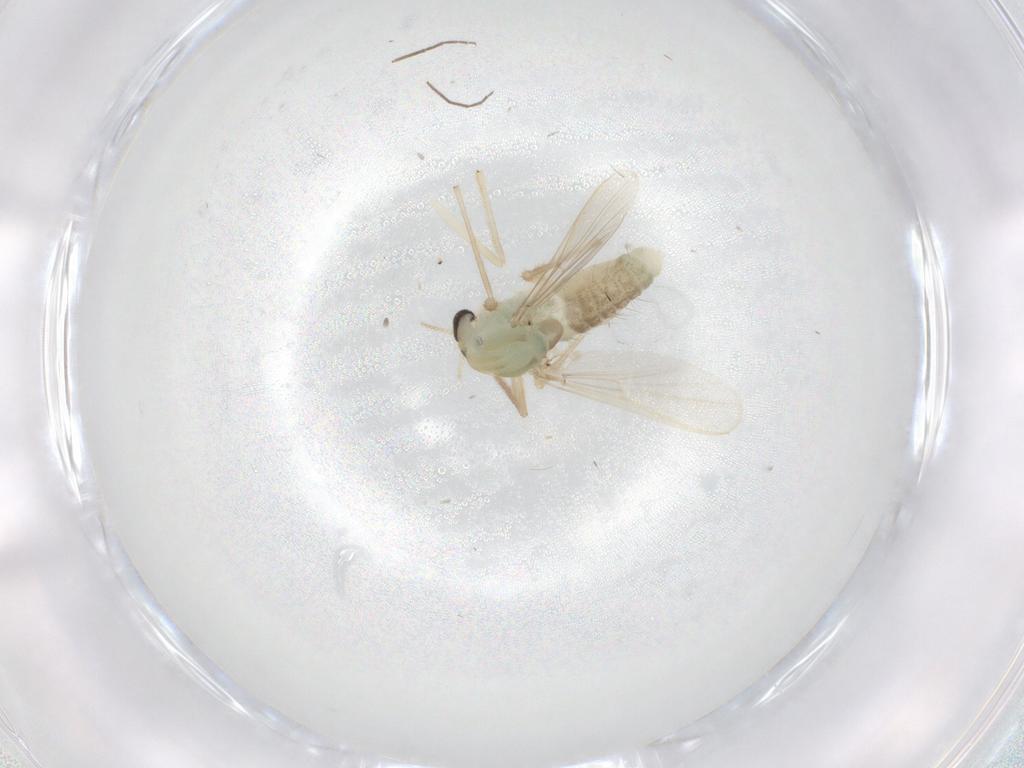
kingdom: Animalia
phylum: Arthropoda
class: Insecta
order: Diptera
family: Chironomidae
